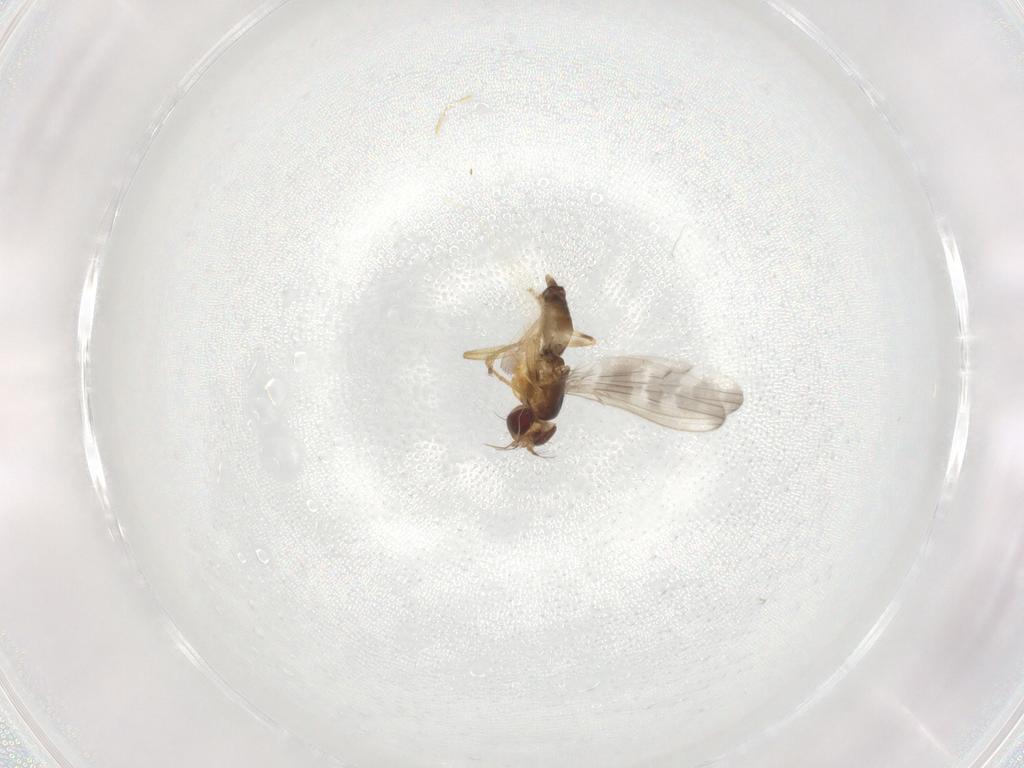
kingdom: Animalia
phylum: Arthropoda
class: Insecta
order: Diptera
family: Periscelididae
